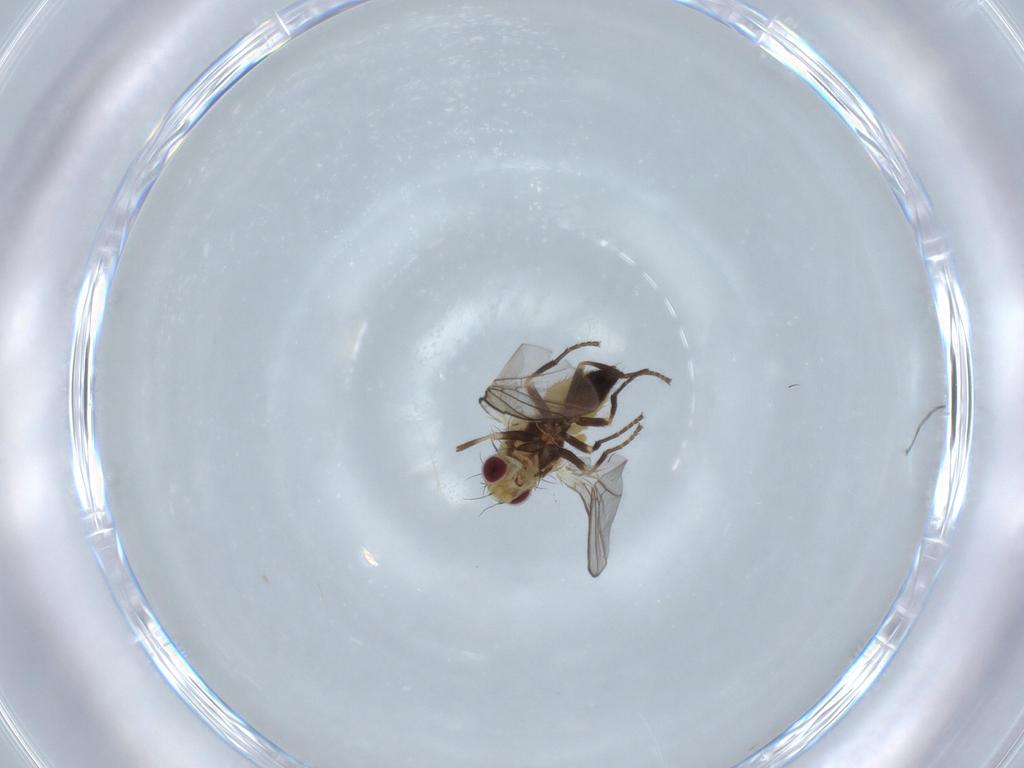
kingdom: Animalia
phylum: Arthropoda
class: Insecta
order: Diptera
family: Agromyzidae
